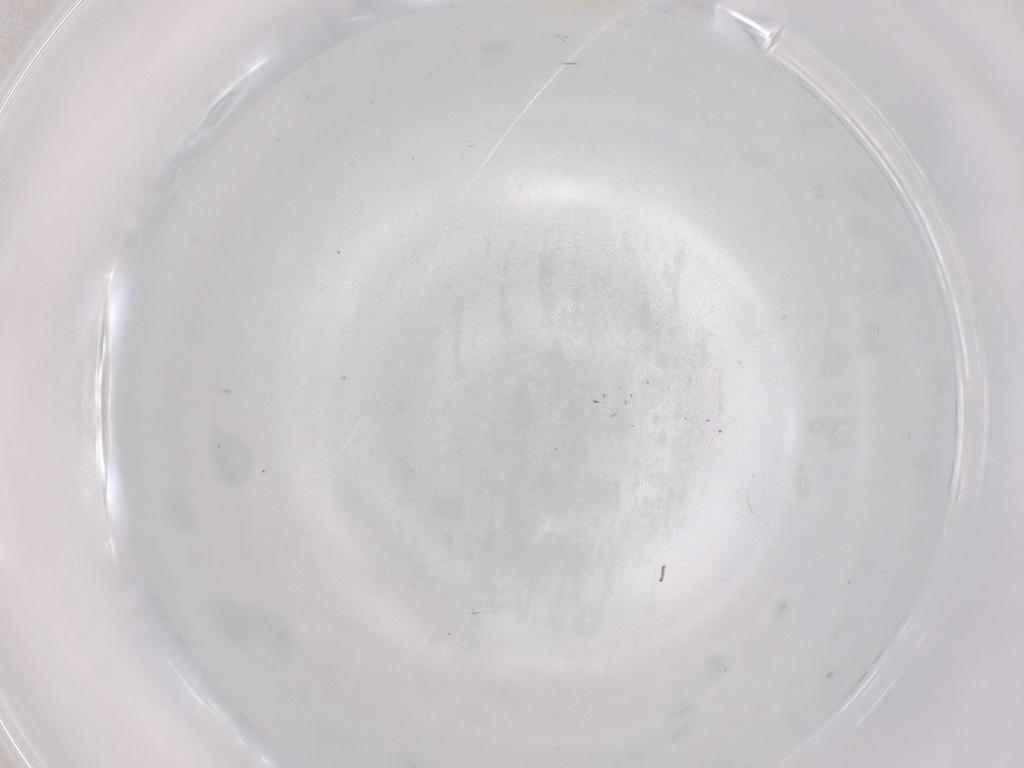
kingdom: Animalia
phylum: Arthropoda
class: Insecta
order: Hymenoptera
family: Scelionidae
